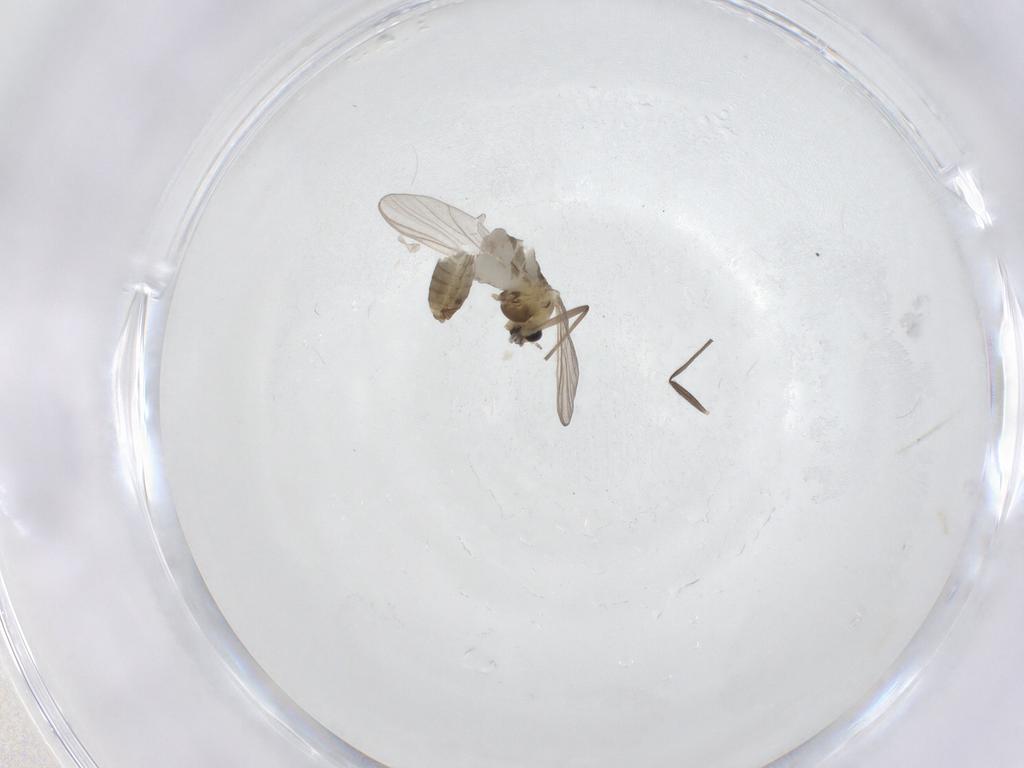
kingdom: Animalia
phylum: Arthropoda
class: Insecta
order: Diptera
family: Chironomidae
